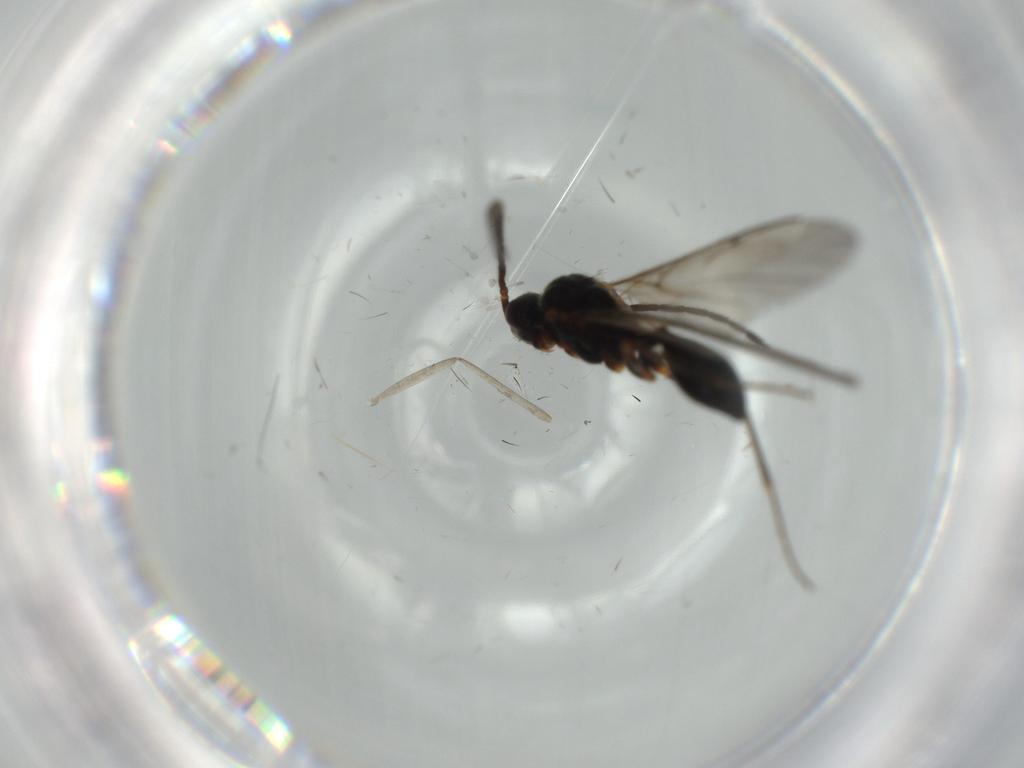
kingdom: Animalia
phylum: Arthropoda
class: Insecta
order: Hymenoptera
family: Diapriidae
